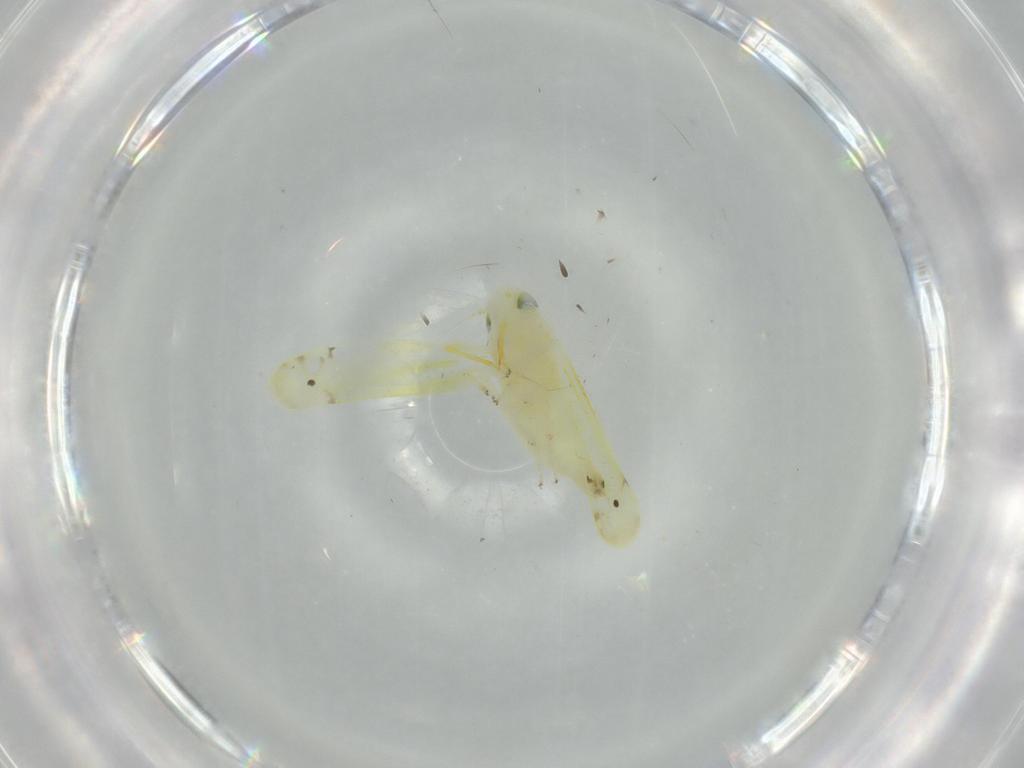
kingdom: Animalia
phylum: Arthropoda
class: Insecta
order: Hemiptera
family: Cicadellidae
